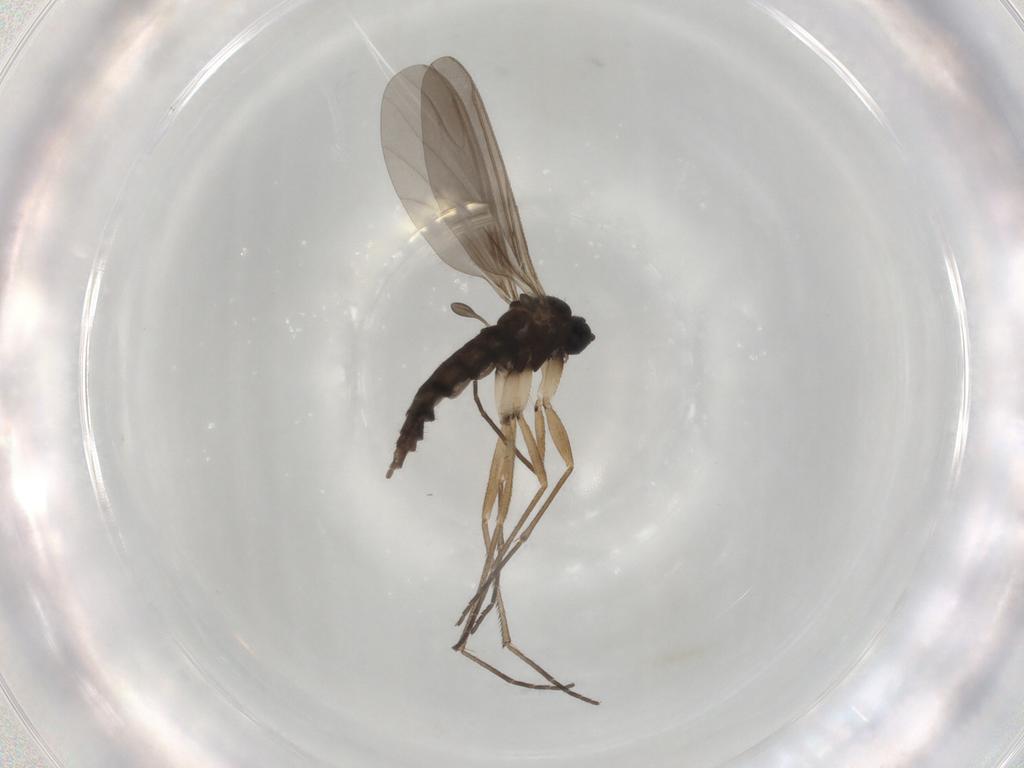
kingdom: Animalia
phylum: Arthropoda
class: Insecta
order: Diptera
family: Sciaridae
